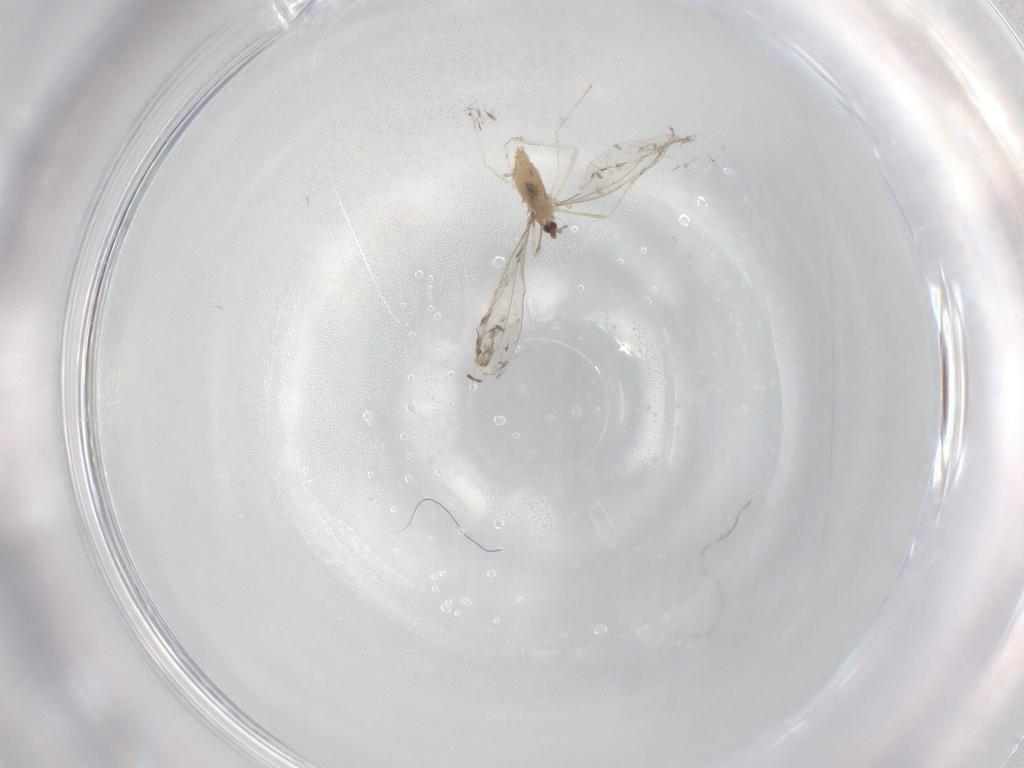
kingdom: Animalia
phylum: Arthropoda
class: Insecta
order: Diptera
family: Cecidomyiidae
